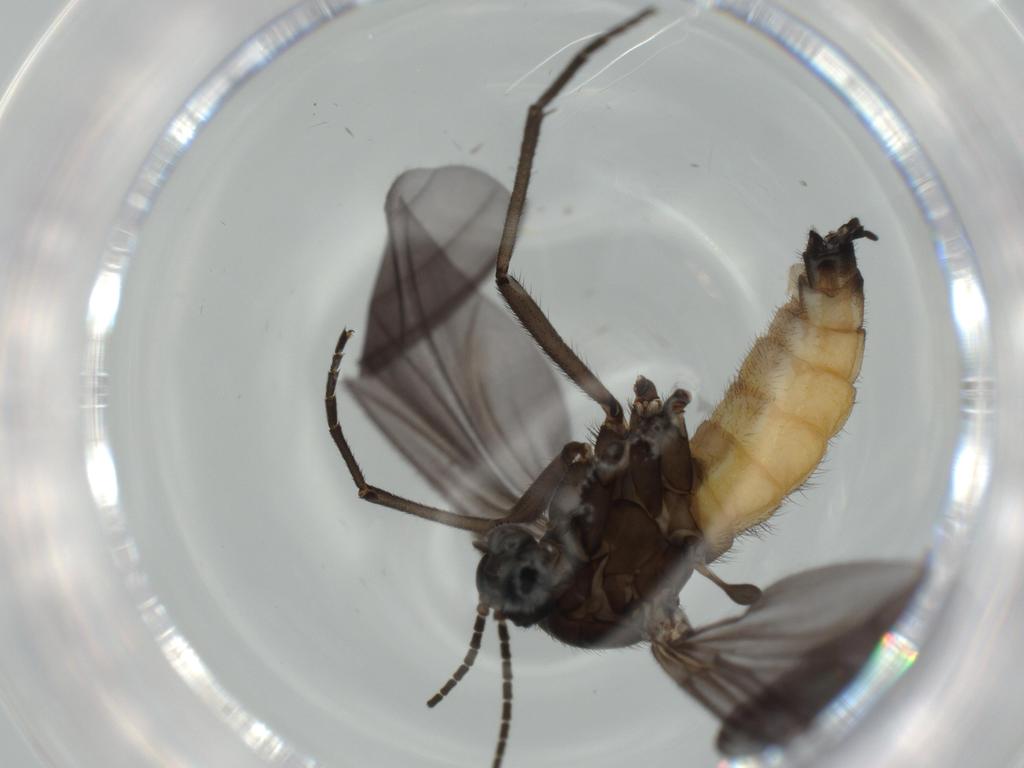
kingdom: Animalia
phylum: Arthropoda
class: Insecta
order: Diptera
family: Sciaridae
